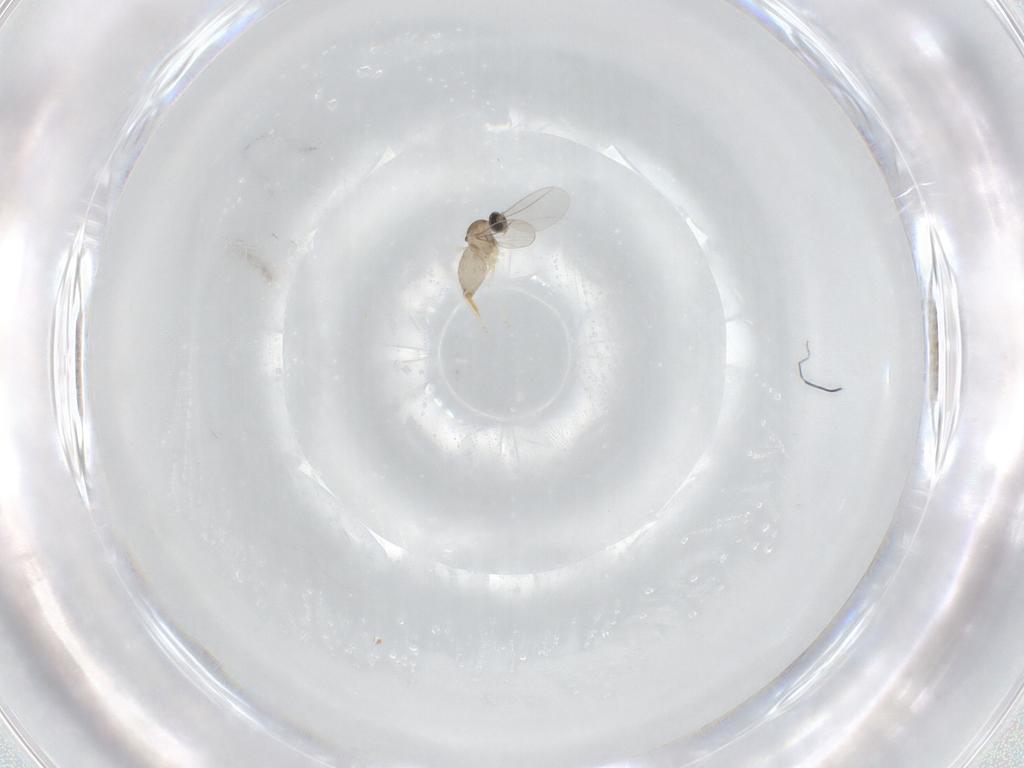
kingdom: Animalia
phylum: Arthropoda
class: Insecta
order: Diptera
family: Cecidomyiidae
